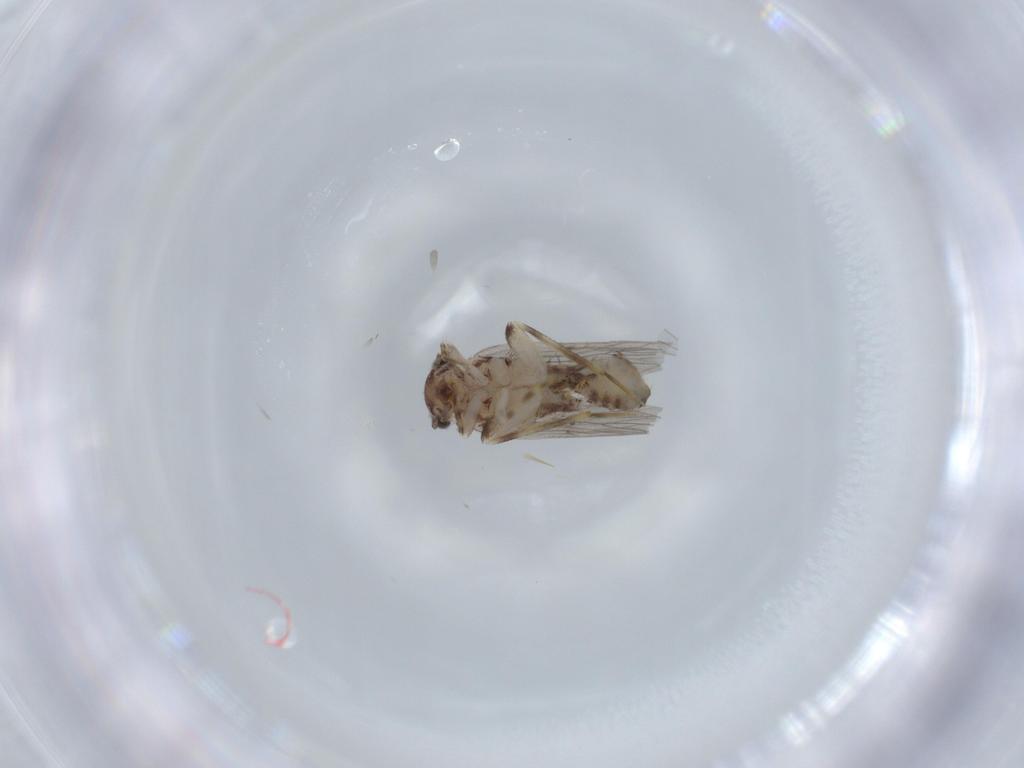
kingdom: Animalia
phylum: Arthropoda
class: Insecta
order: Psocodea
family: Lepidopsocidae
